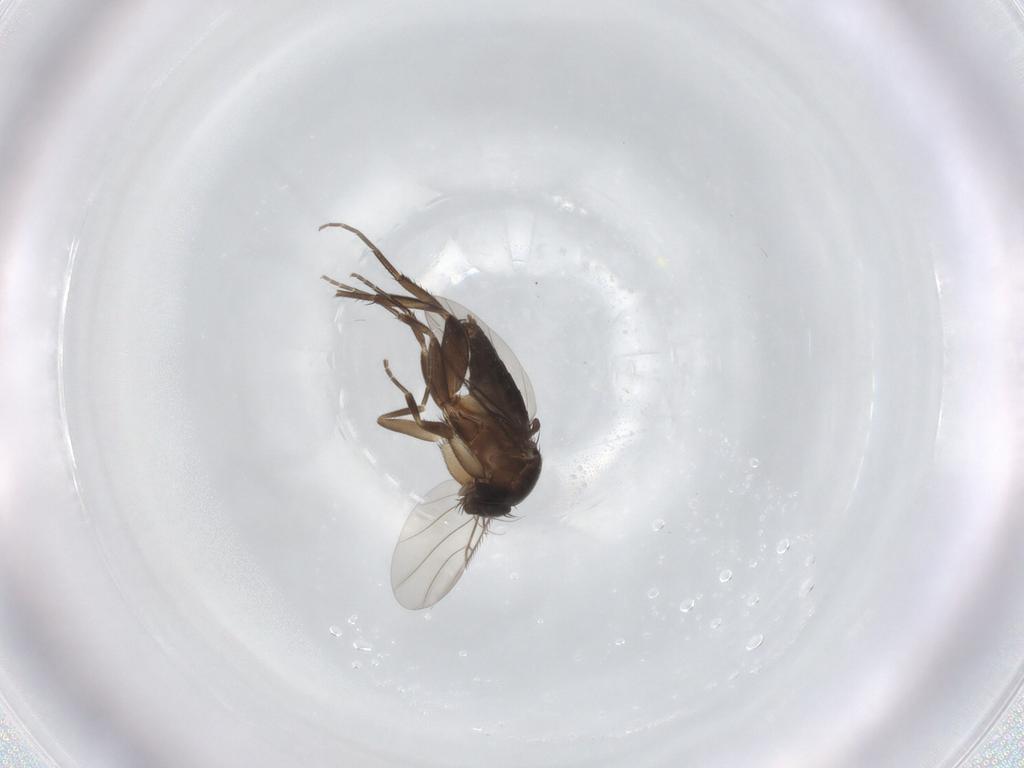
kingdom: Animalia
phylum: Arthropoda
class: Insecta
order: Diptera
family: Phoridae
